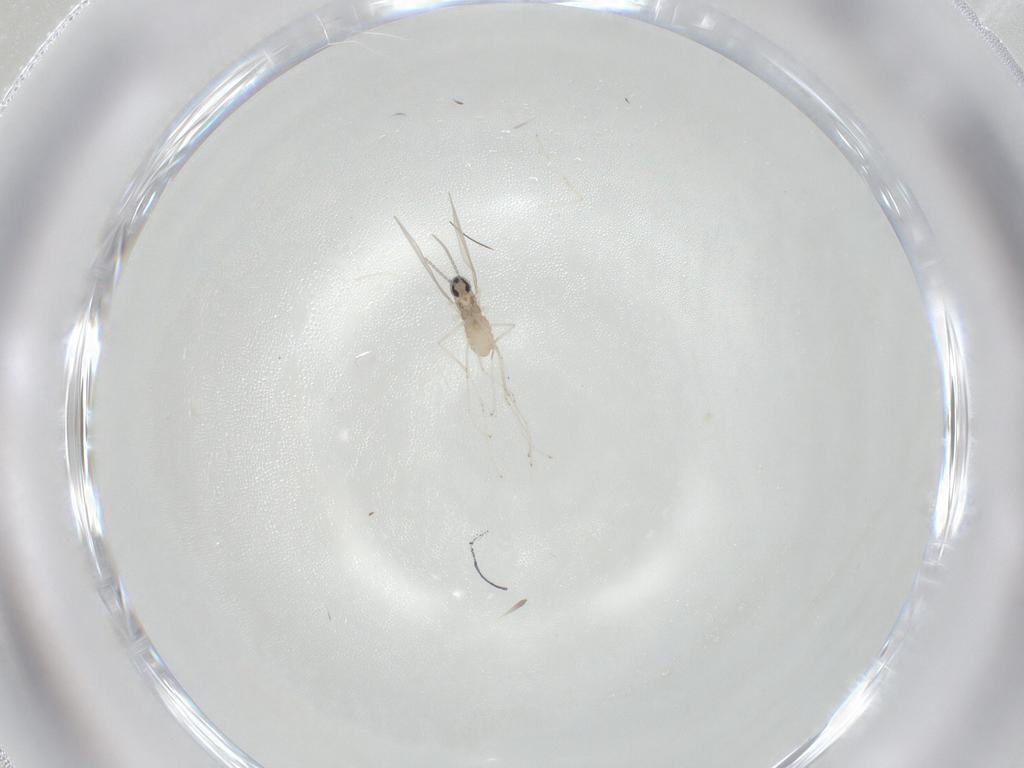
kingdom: Animalia
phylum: Arthropoda
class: Insecta
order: Diptera
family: Cecidomyiidae
